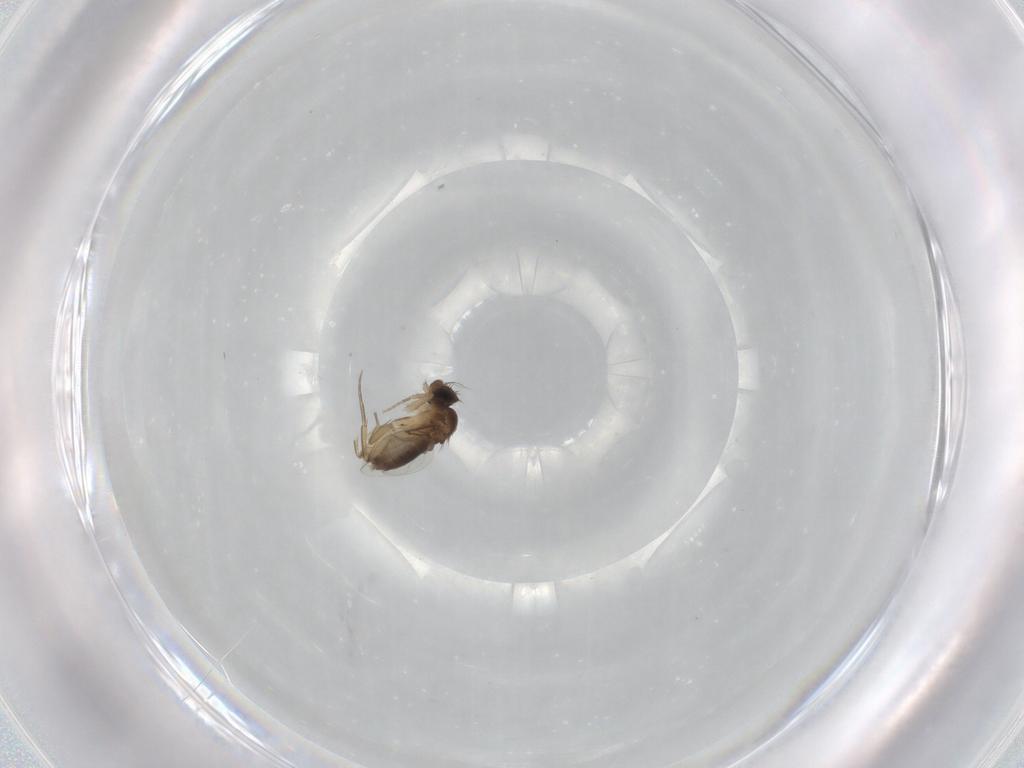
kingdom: Animalia
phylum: Arthropoda
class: Insecta
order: Diptera
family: Phoridae
